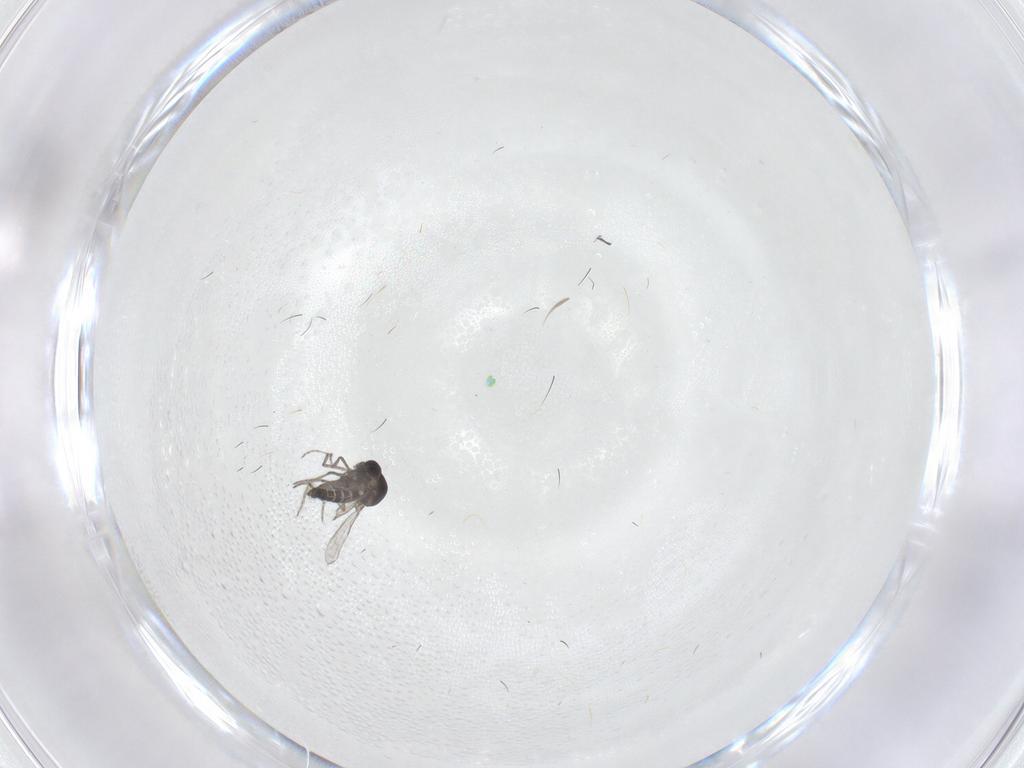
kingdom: Animalia
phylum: Arthropoda
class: Insecta
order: Diptera
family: Ceratopogonidae
